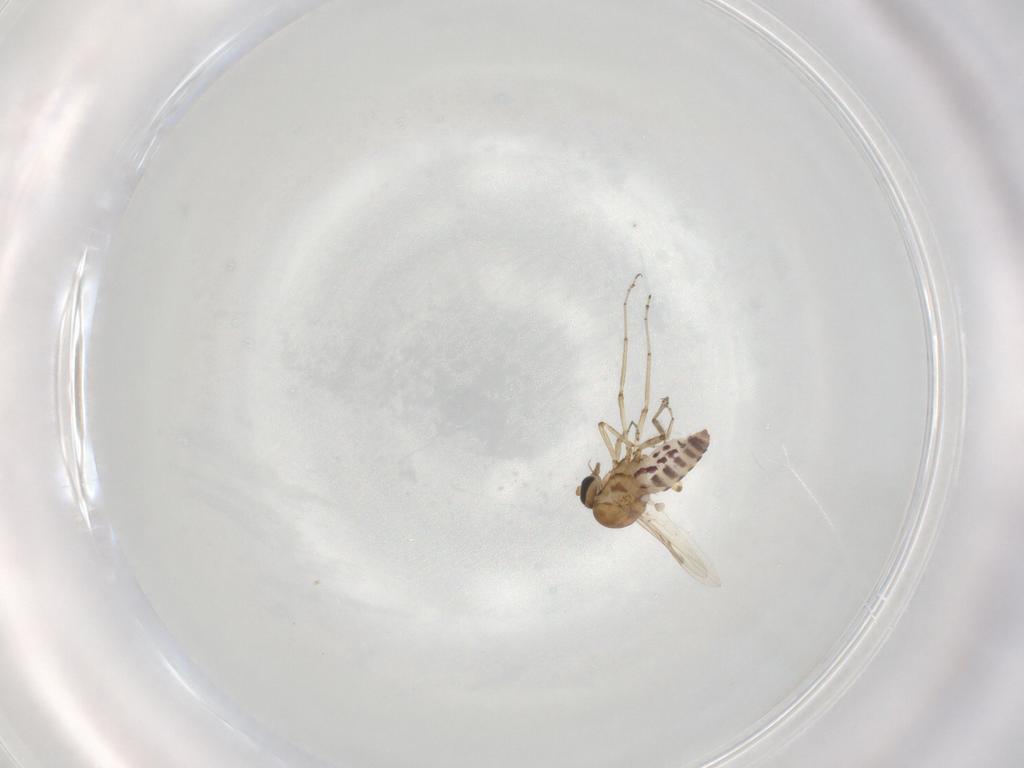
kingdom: Animalia
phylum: Arthropoda
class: Insecta
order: Diptera
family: Ceratopogonidae
